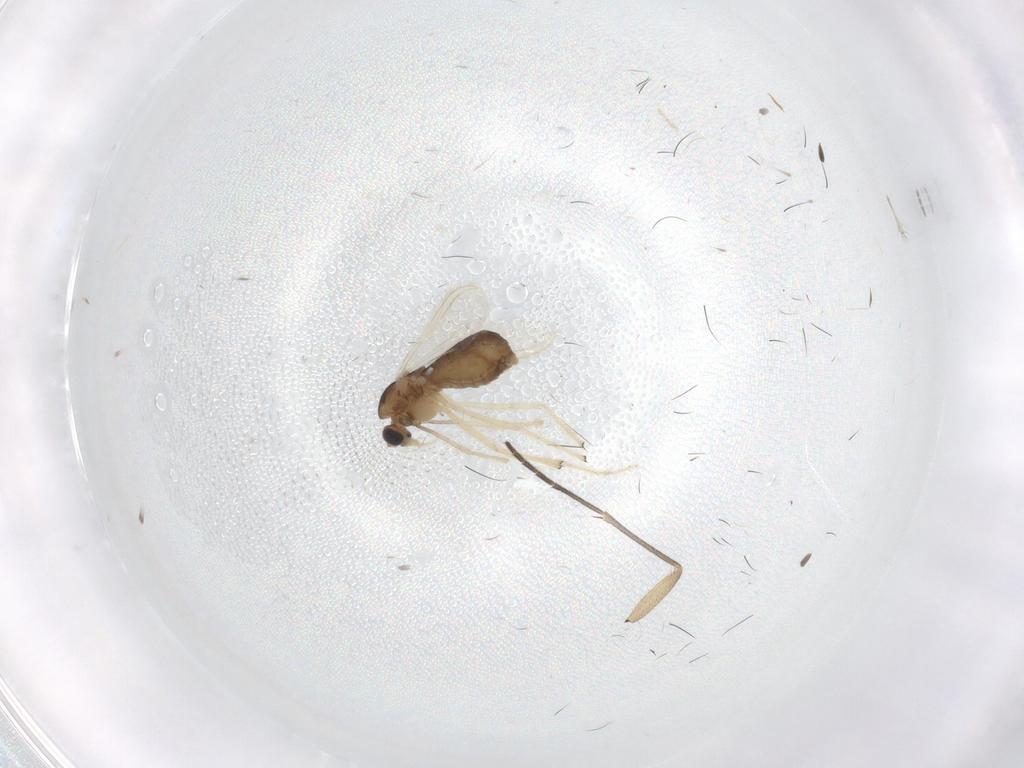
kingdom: Animalia
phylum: Arthropoda
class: Insecta
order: Diptera
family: Chironomidae
